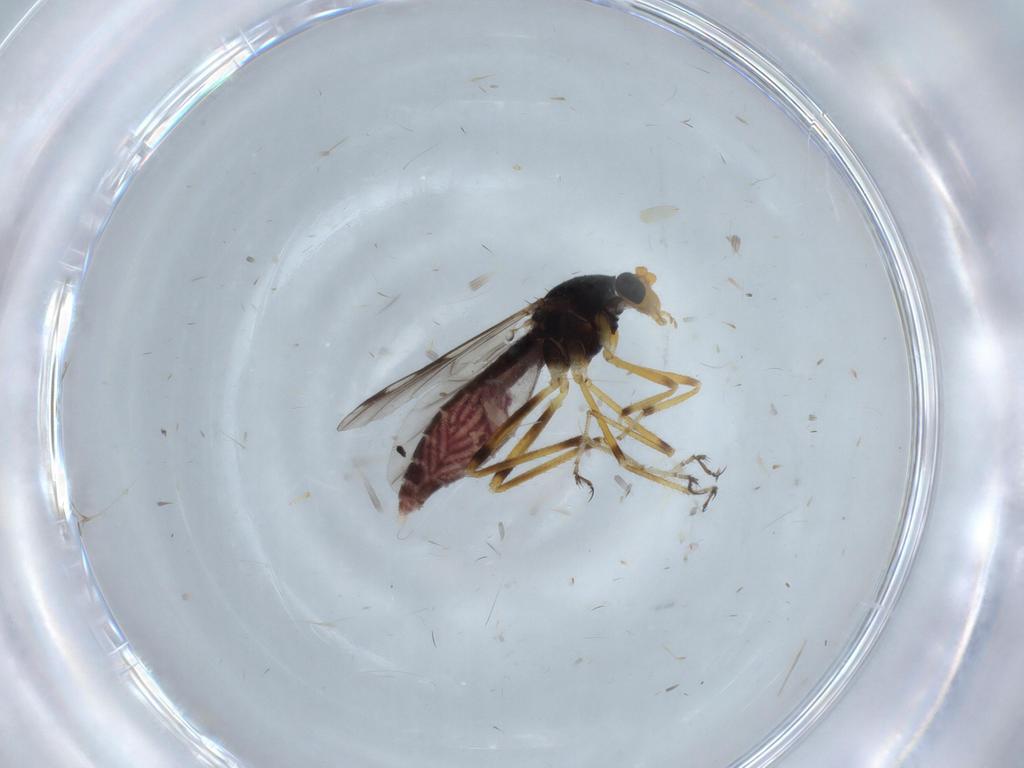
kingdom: Animalia
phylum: Arthropoda
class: Insecta
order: Diptera
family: Ceratopogonidae
